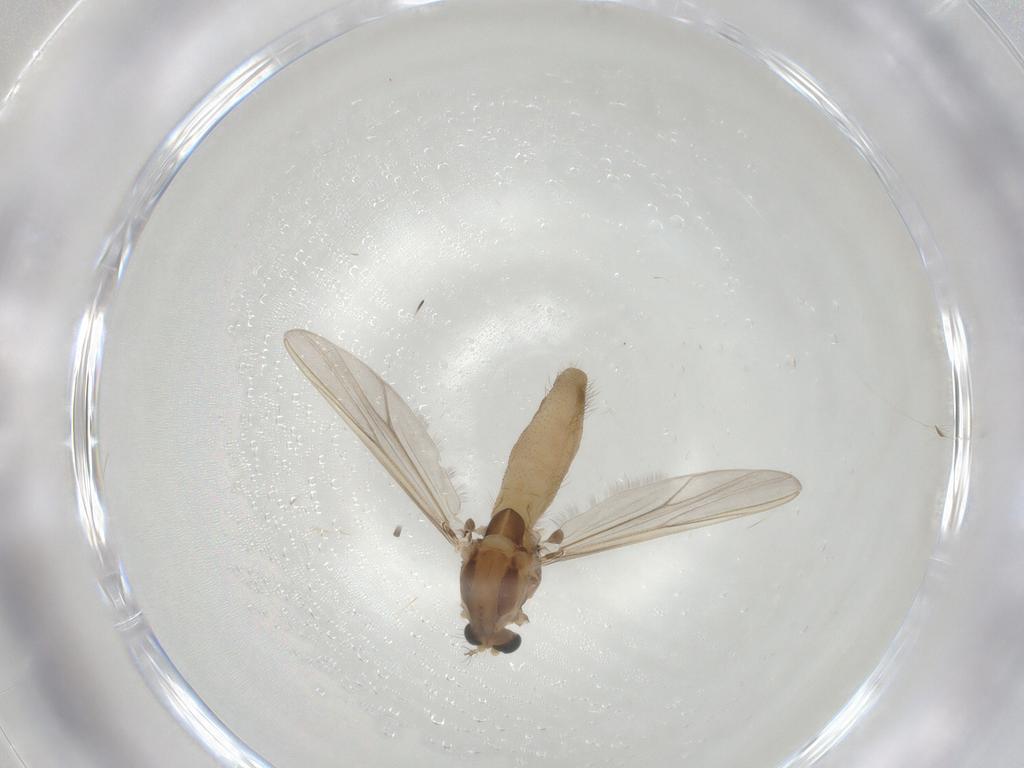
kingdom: Animalia
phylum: Arthropoda
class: Insecta
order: Diptera
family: Chironomidae
